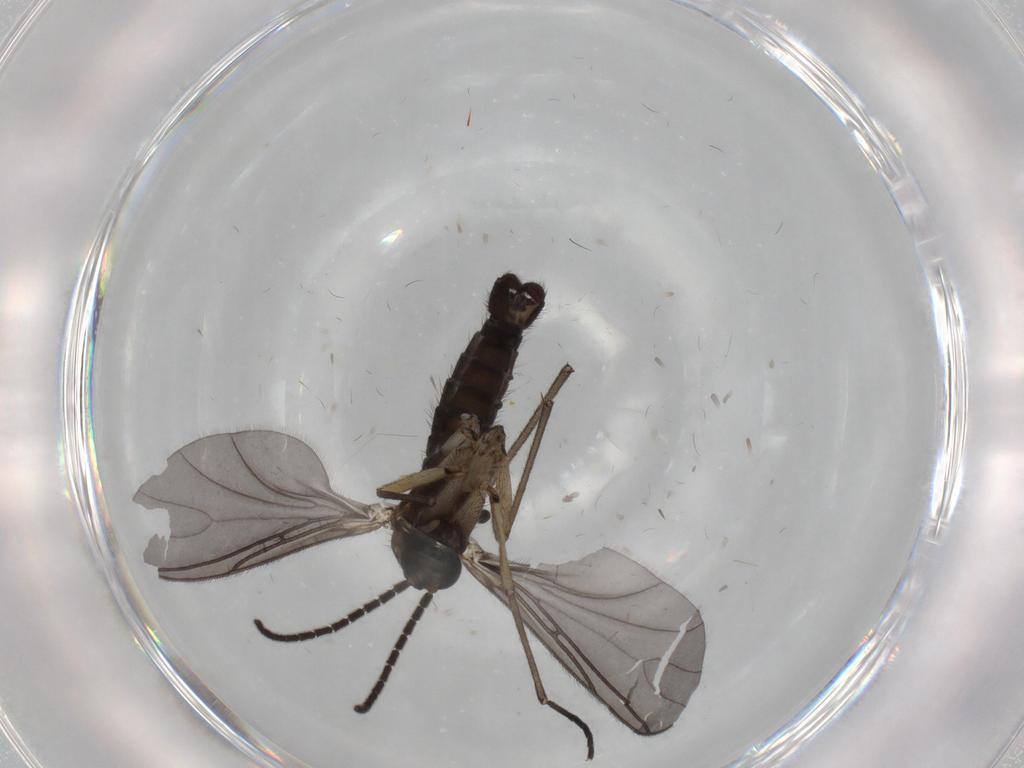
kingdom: Animalia
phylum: Arthropoda
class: Insecta
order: Diptera
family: Sciaridae
